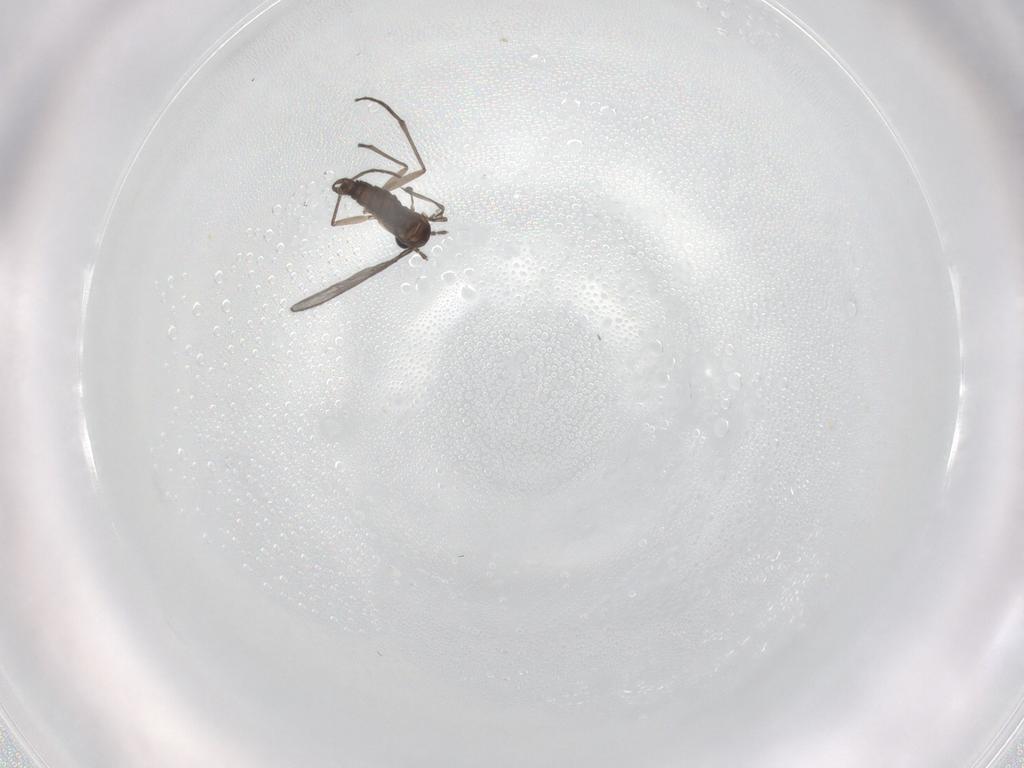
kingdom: Animalia
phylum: Arthropoda
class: Insecta
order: Diptera
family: Sciaridae
